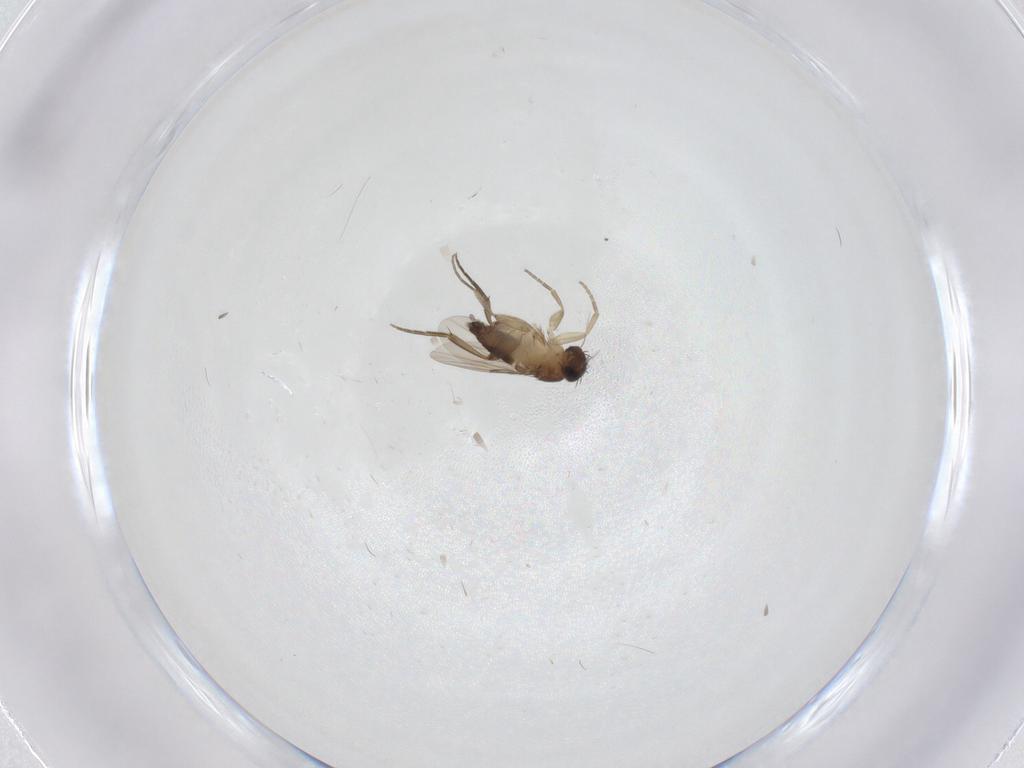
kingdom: Animalia
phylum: Arthropoda
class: Insecta
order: Diptera
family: Phoridae
